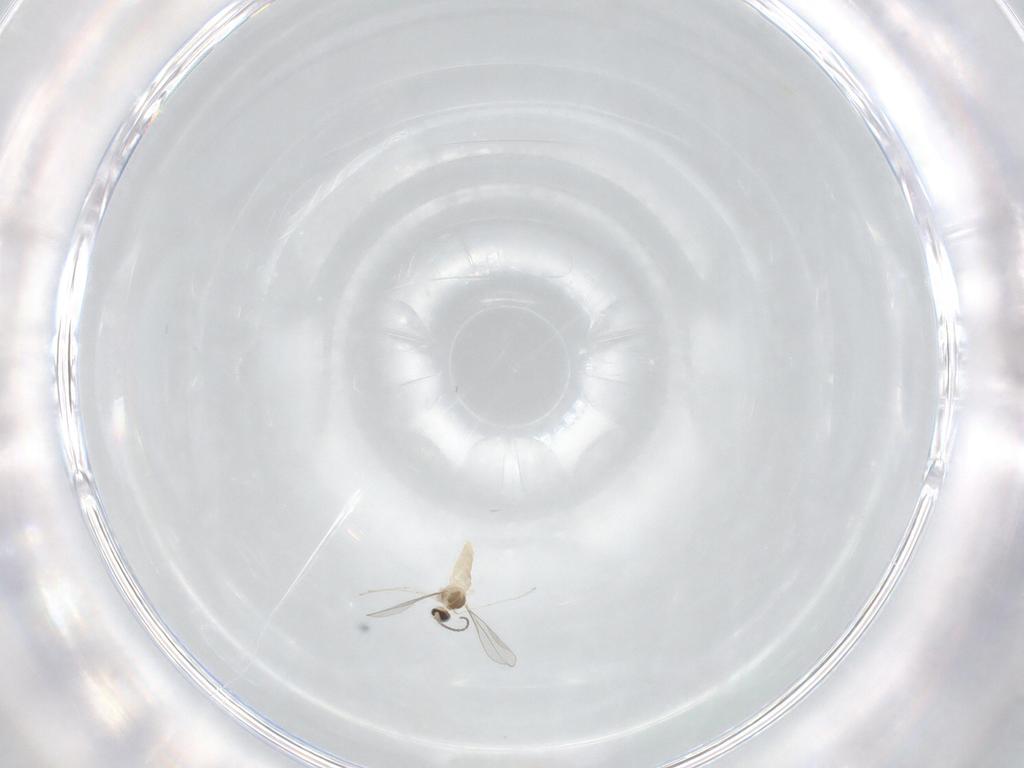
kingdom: Animalia
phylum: Arthropoda
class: Insecta
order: Diptera
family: Cecidomyiidae
